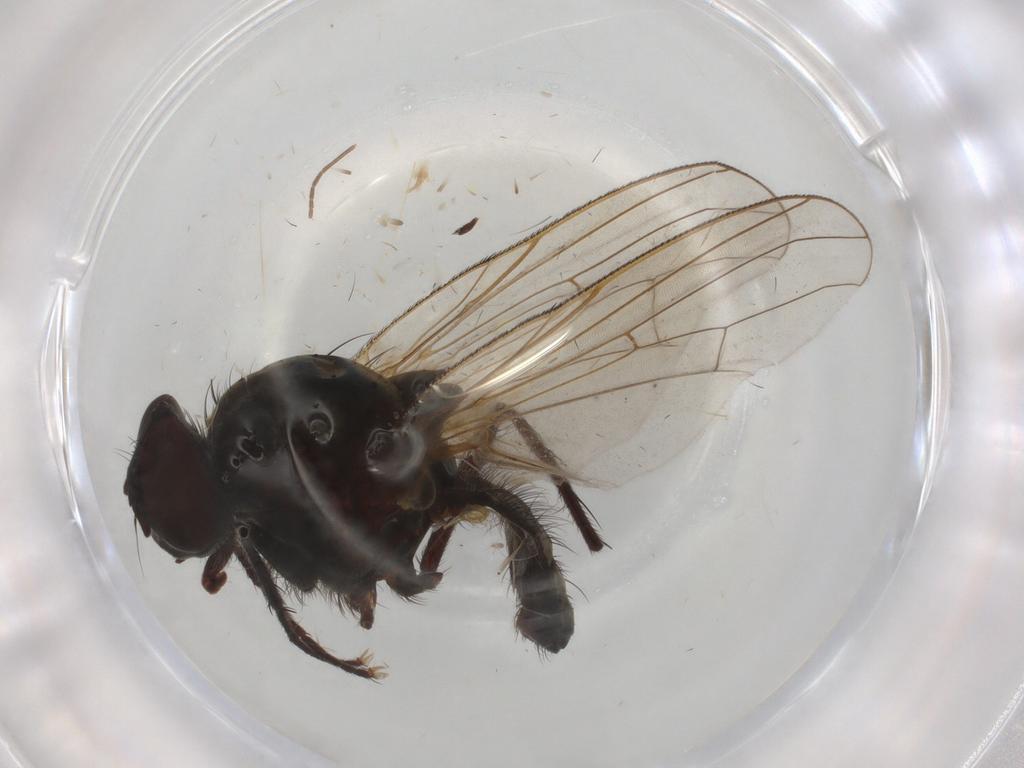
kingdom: Animalia
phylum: Arthropoda
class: Insecta
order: Diptera
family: Anthomyiidae
